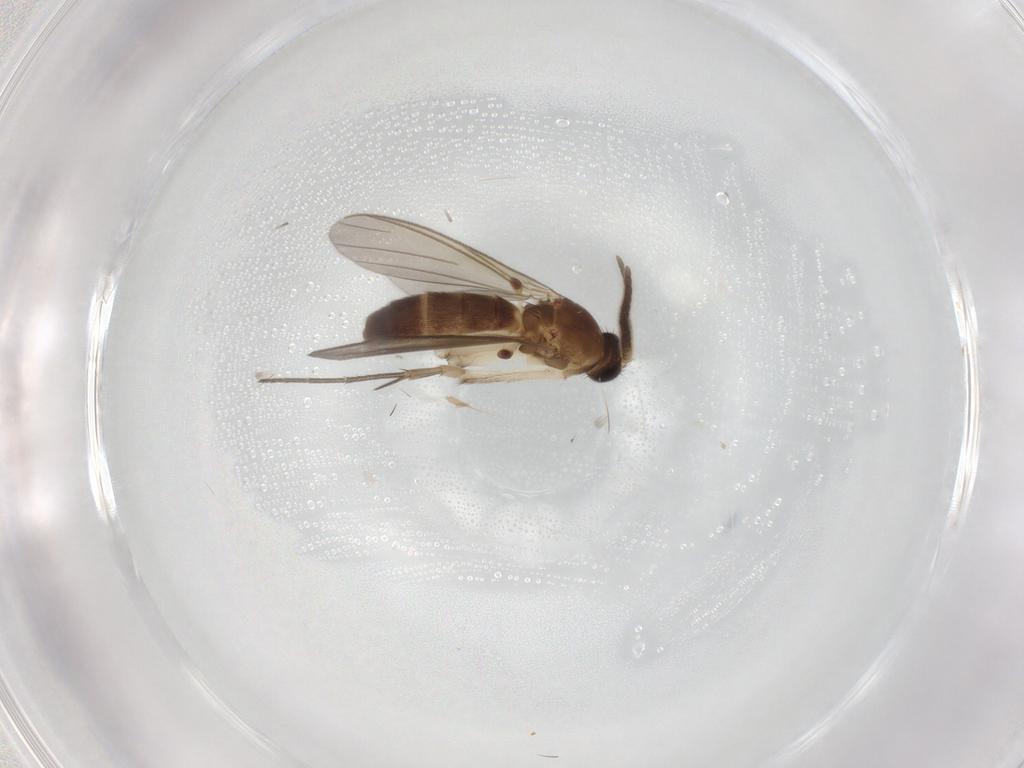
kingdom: Animalia
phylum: Arthropoda
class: Insecta
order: Diptera
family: Mycetophilidae
